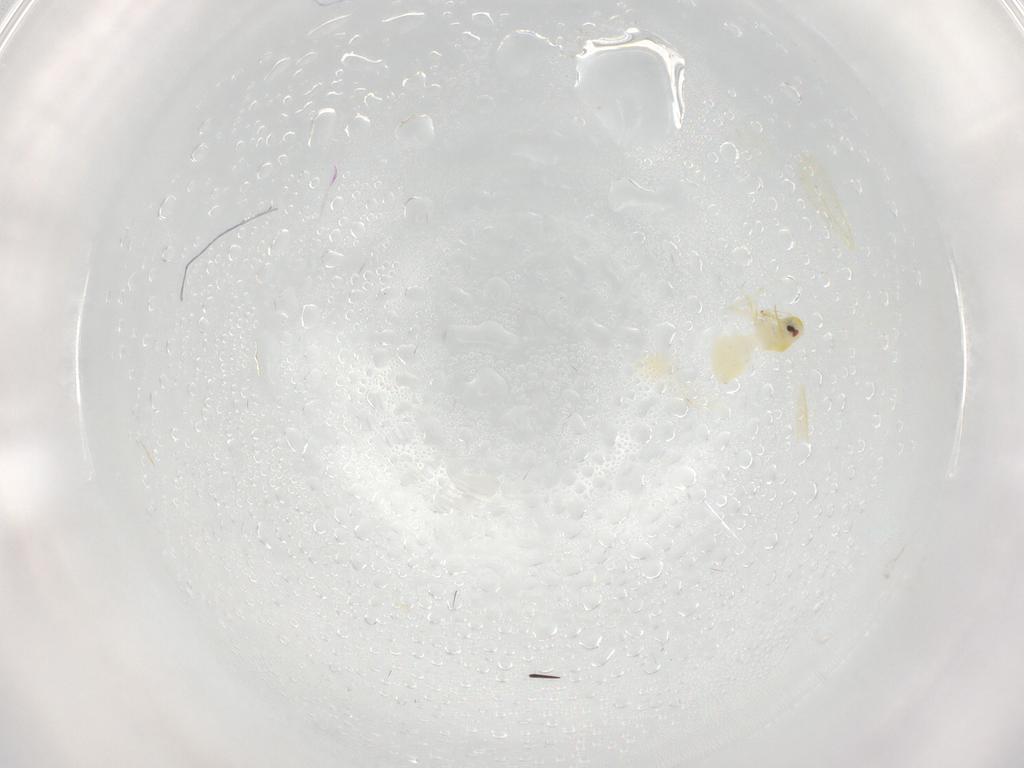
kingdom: Animalia
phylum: Arthropoda
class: Insecta
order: Hemiptera
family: Aleyrodidae
